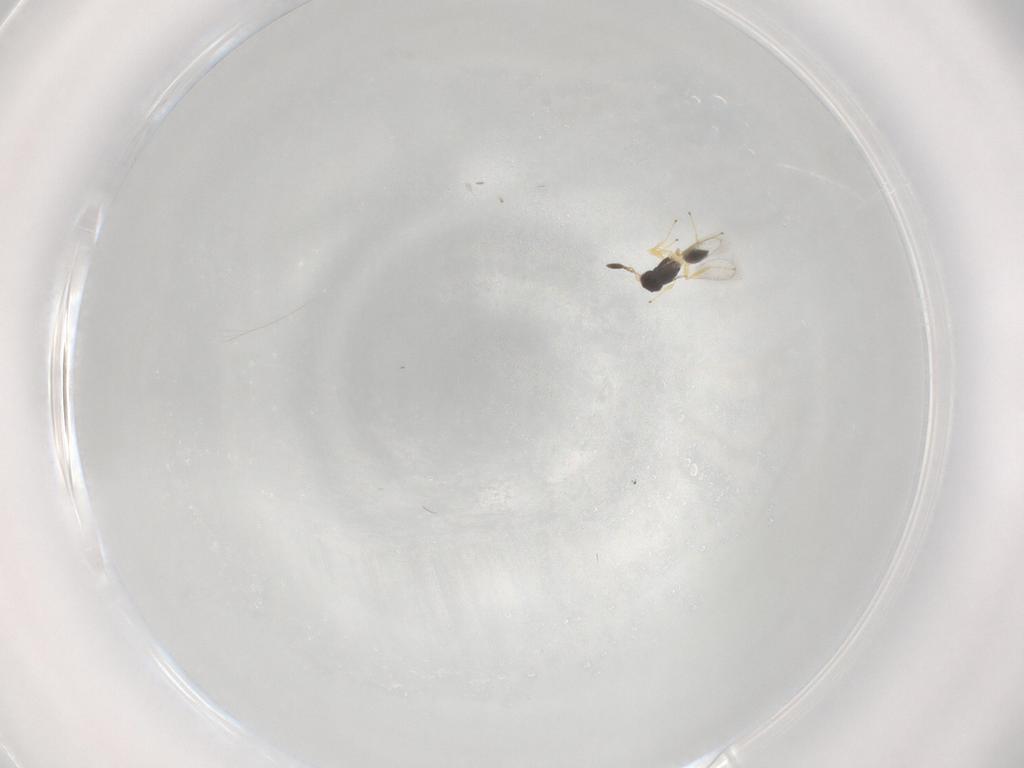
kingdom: Animalia
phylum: Arthropoda
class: Insecta
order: Hymenoptera
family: Mymaridae
